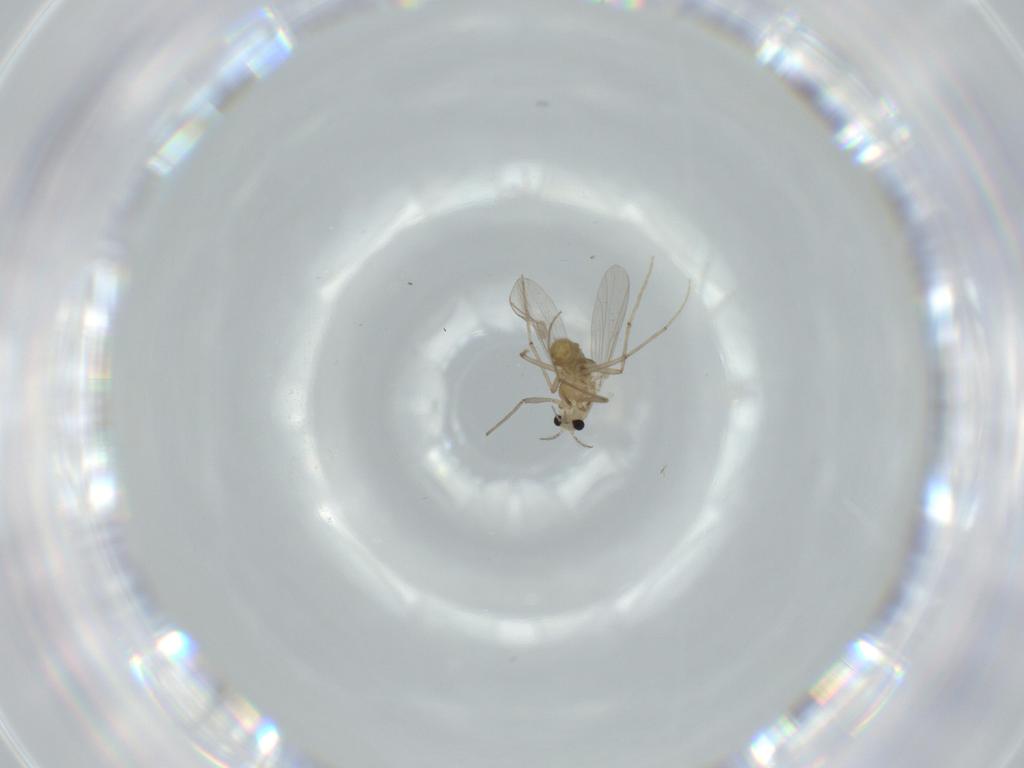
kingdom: Animalia
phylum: Arthropoda
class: Insecta
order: Diptera
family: Chironomidae
